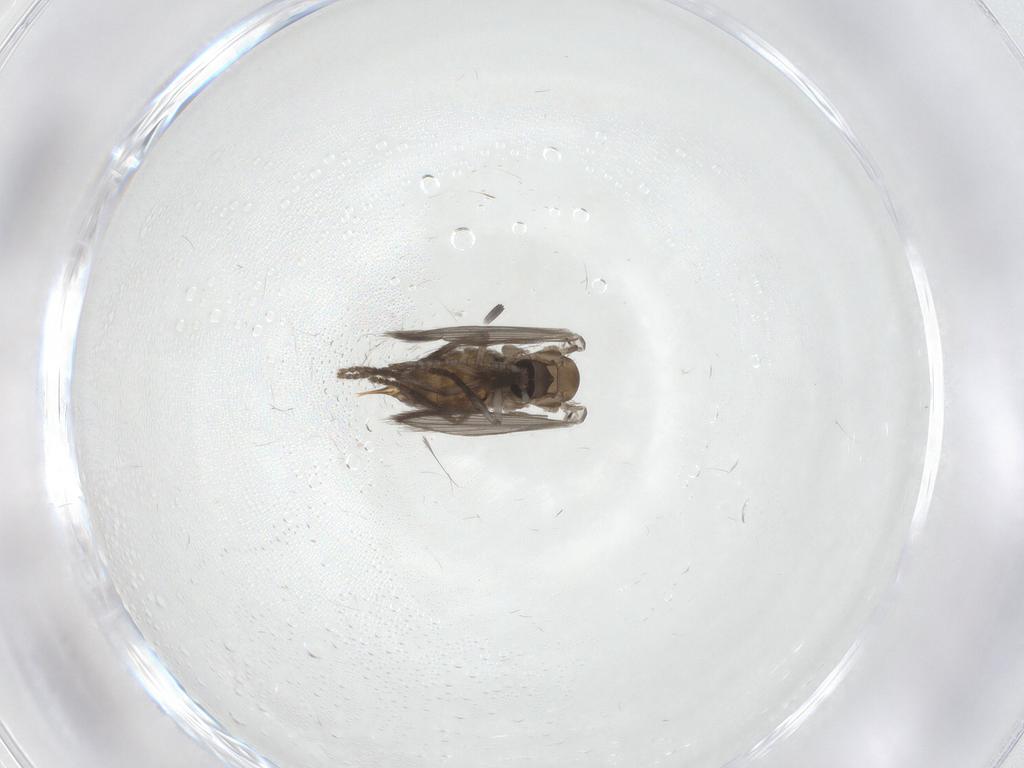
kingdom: Animalia
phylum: Arthropoda
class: Insecta
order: Diptera
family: Psychodidae
